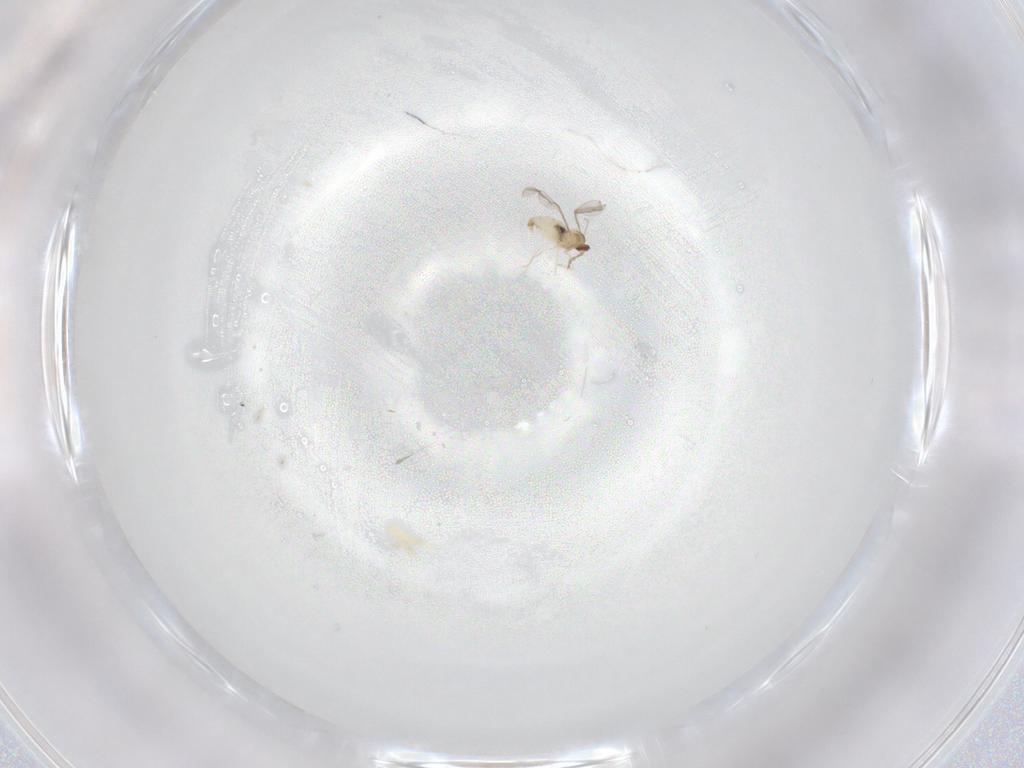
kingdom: Animalia
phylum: Arthropoda
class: Insecta
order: Diptera
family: Cecidomyiidae
